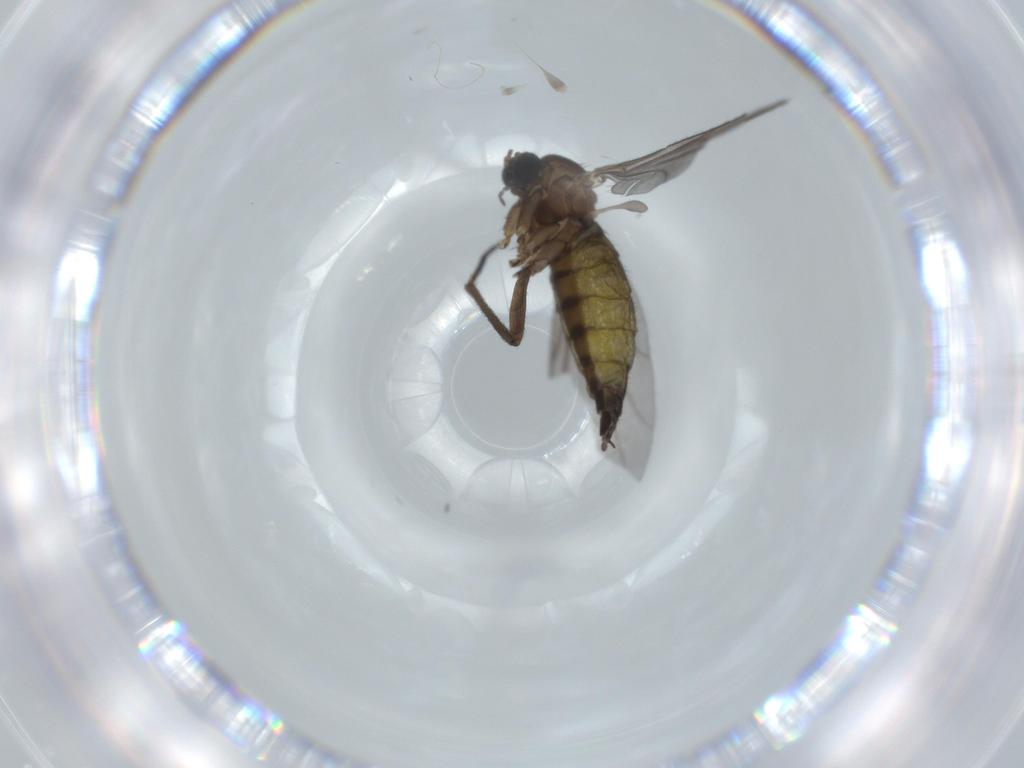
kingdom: Animalia
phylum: Arthropoda
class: Insecta
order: Diptera
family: Sciaridae
